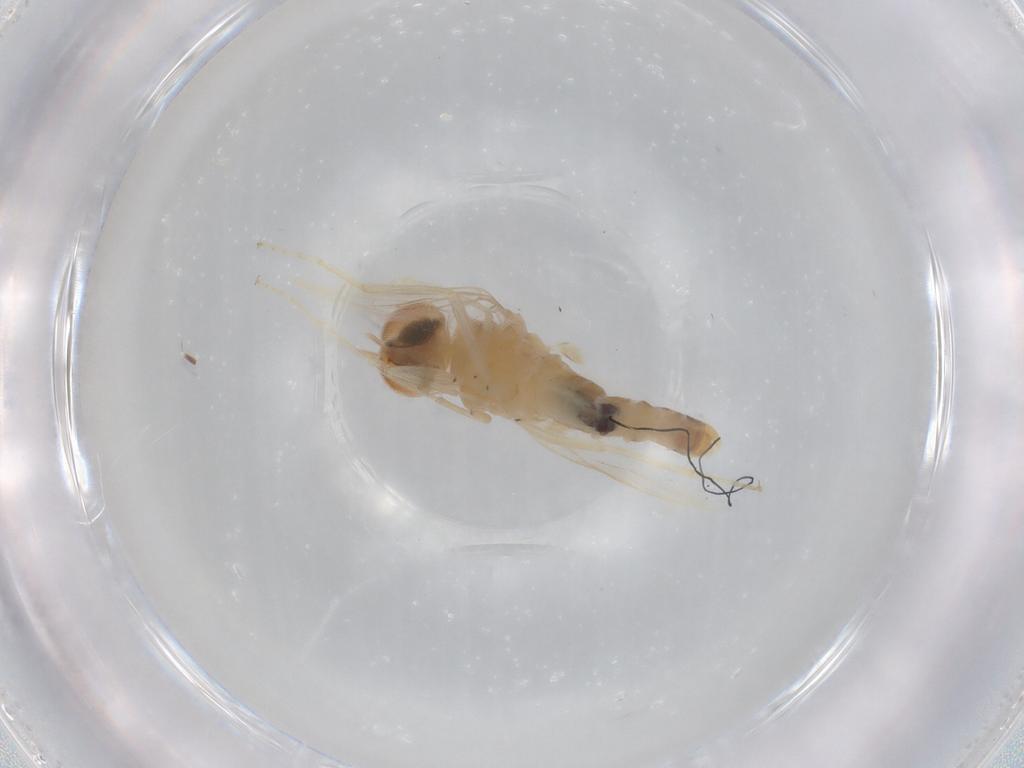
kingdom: Animalia
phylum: Arthropoda
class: Insecta
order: Diptera
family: Scenopinidae
